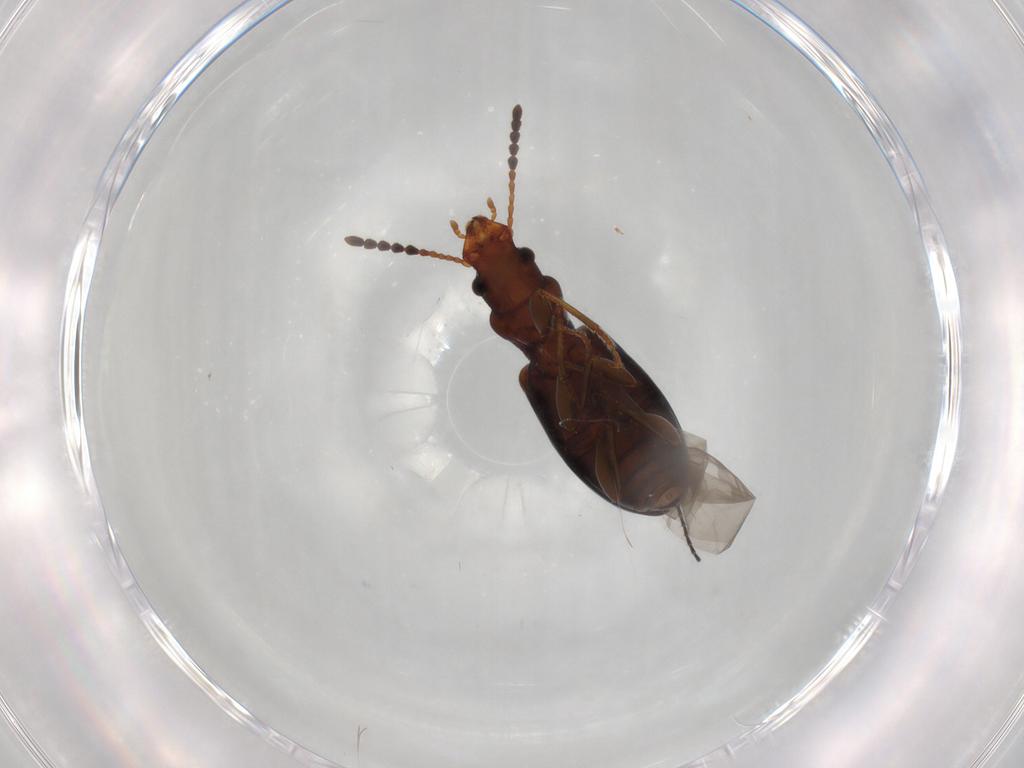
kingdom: Animalia
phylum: Arthropoda
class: Insecta
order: Coleoptera
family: Salpingidae
